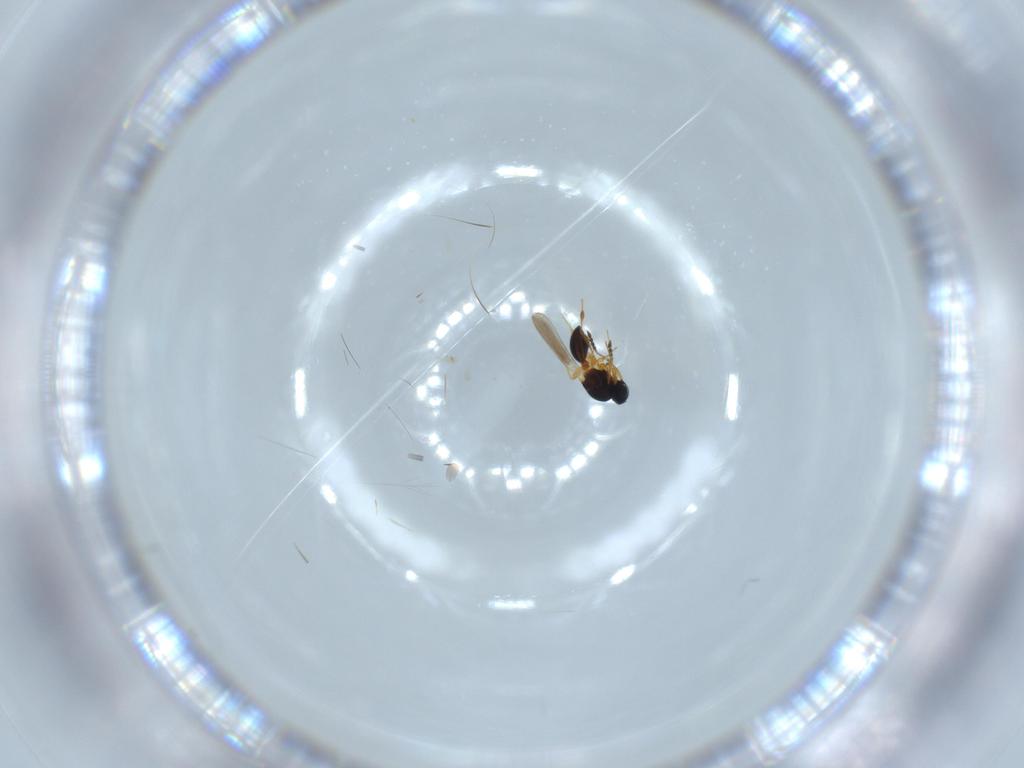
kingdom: Animalia
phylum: Arthropoda
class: Insecta
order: Hymenoptera
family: Platygastridae
